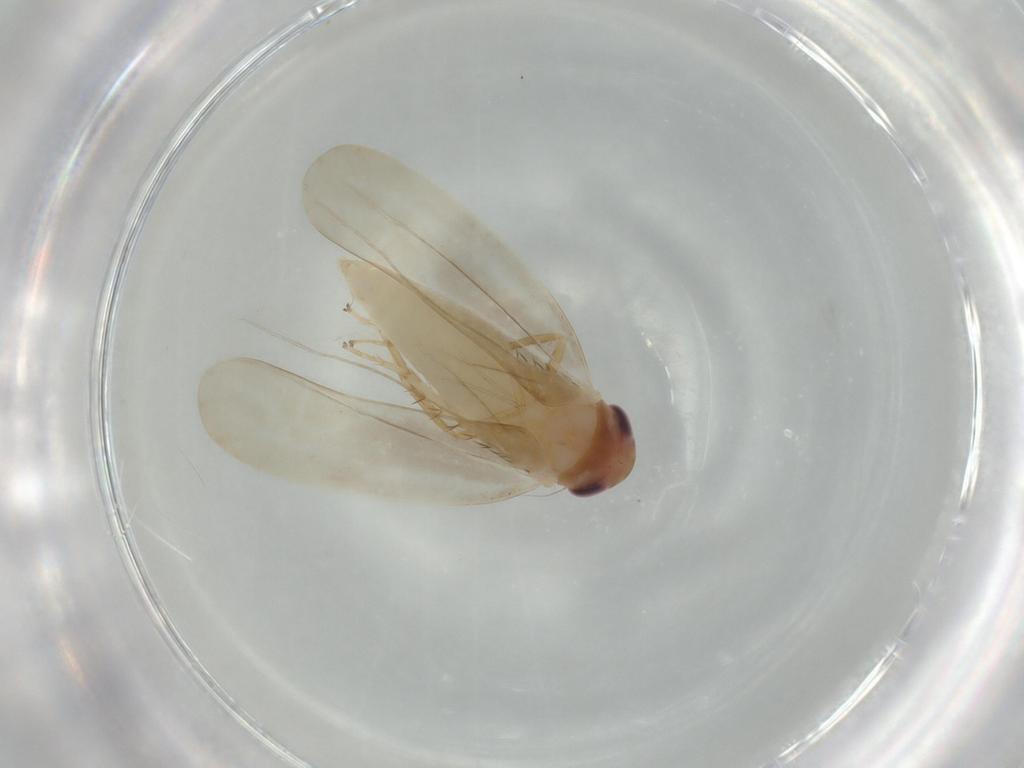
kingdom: Animalia
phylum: Arthropoda
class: Insecta
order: Hemiptera
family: Cicadellidae
